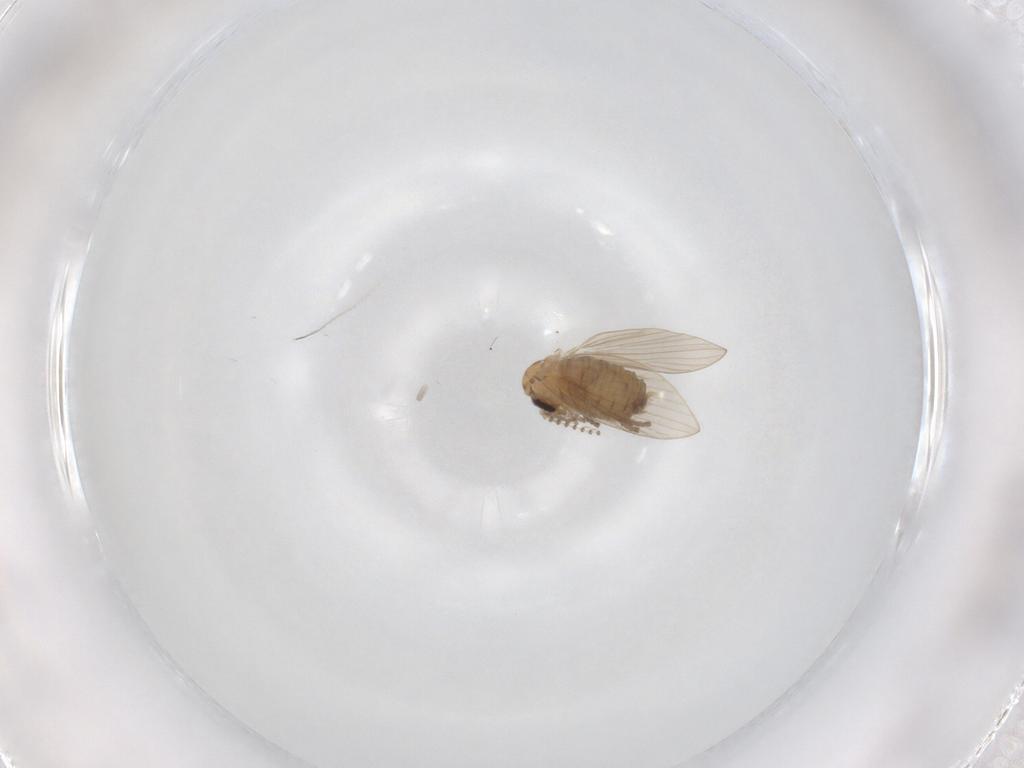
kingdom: Animalia
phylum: Arthropoda
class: Insecta
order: Diptera
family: Psychodidae
